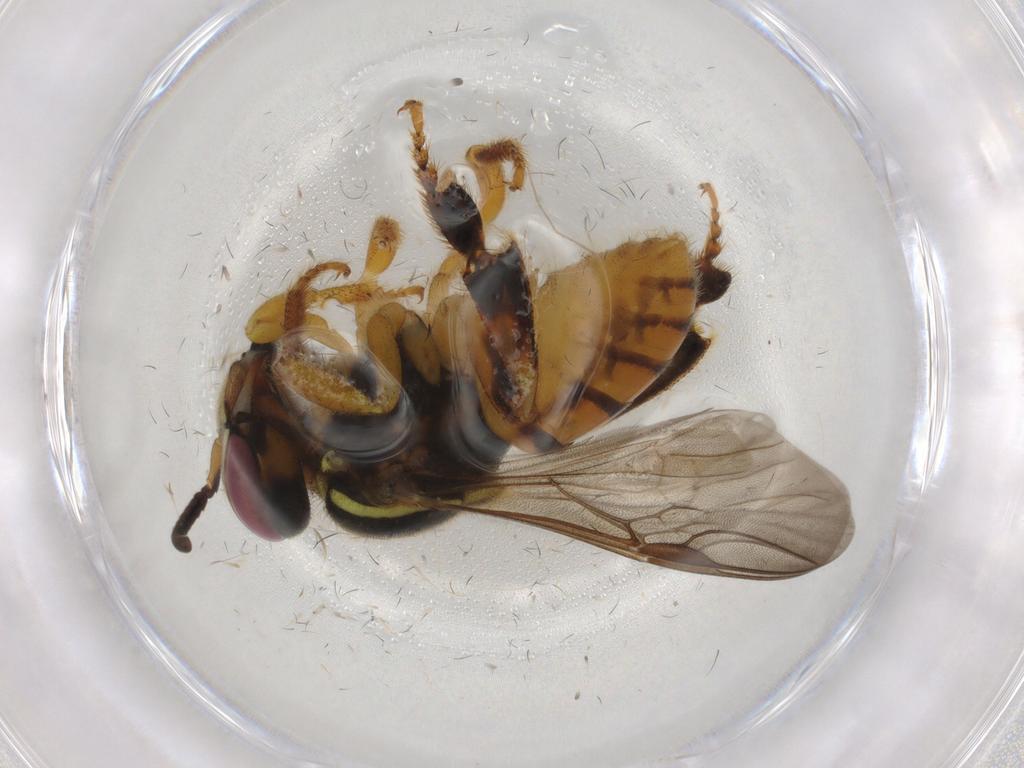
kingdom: Animalia
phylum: Arthropoda
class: Insecta
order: Hymenoptera
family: Apidae
